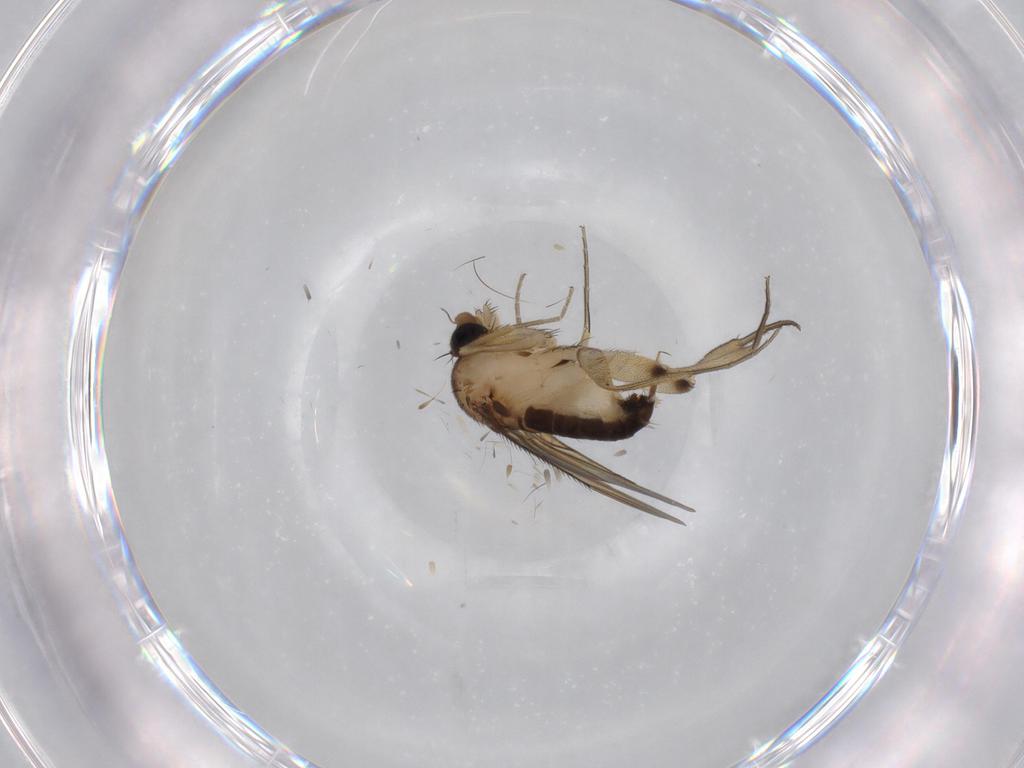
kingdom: Animalia
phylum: Arthropoda
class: Insecta
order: Diptera
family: Phoridae
